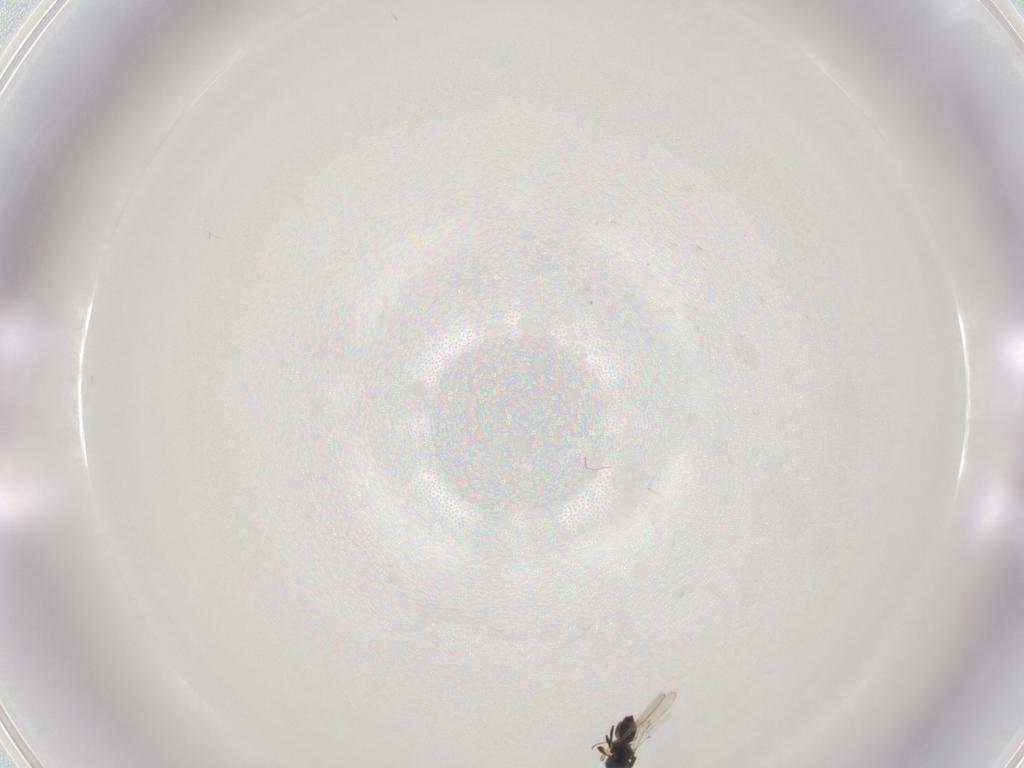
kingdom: Animalia
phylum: Arthropoda
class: Insecta
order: Hymenoptera
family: Scelionidae
